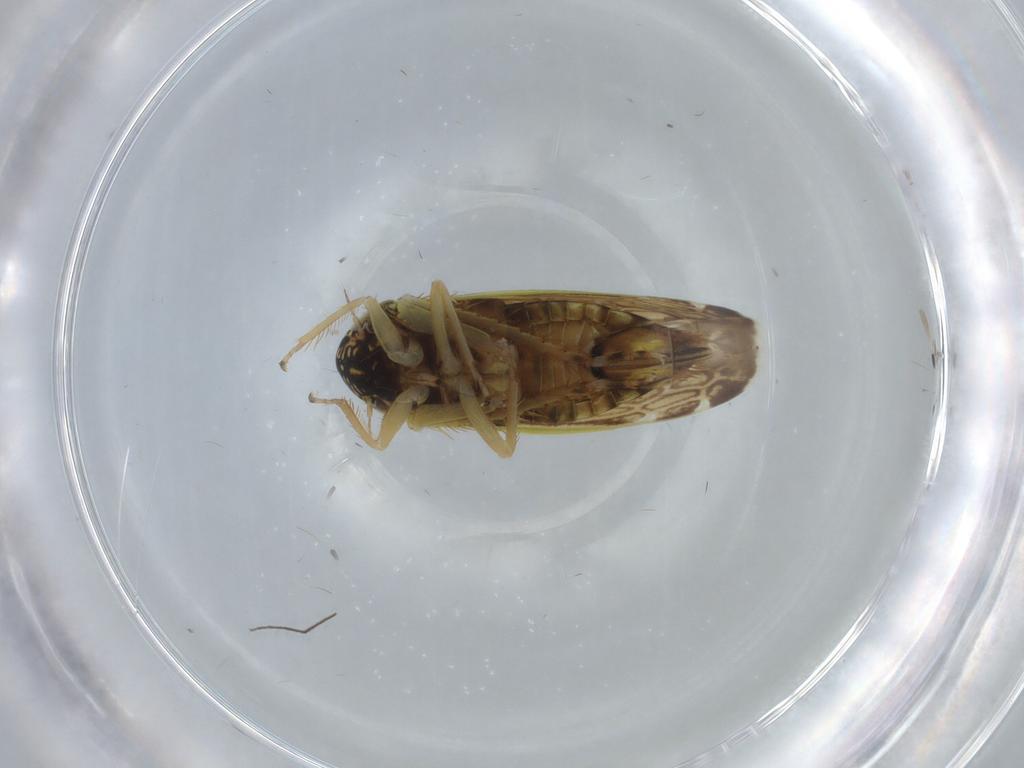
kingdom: Animalia
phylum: Arthropoda
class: Insecta
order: Hemiptera
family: Cicadellidae
